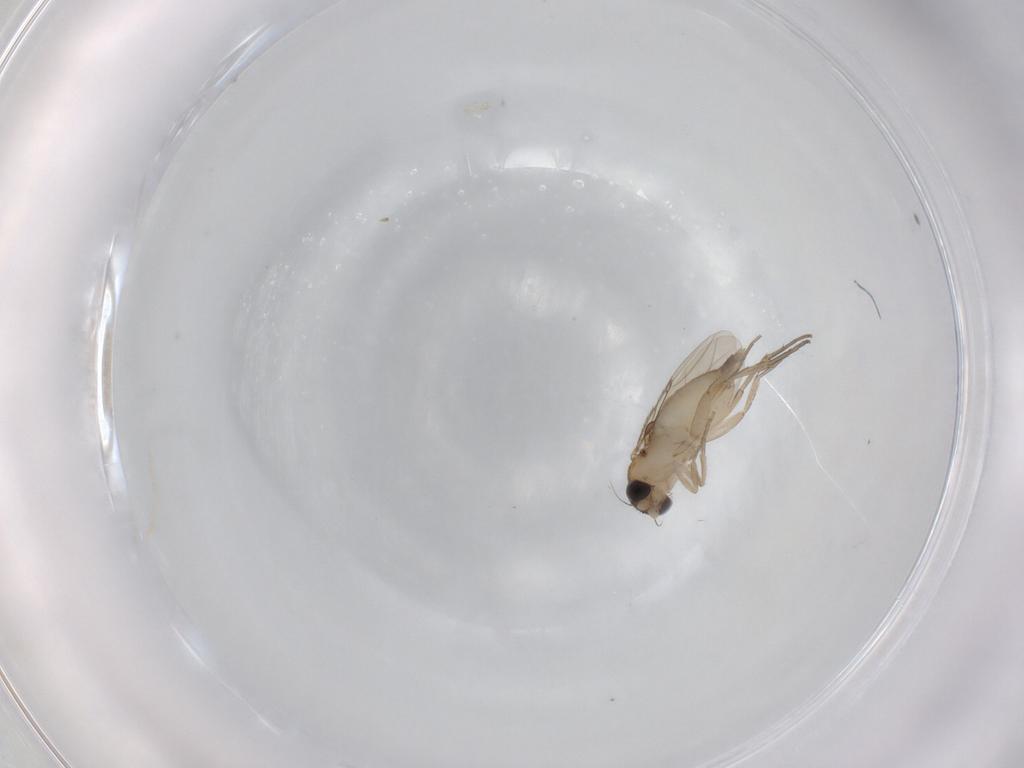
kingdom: Animalia
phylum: Arthropoda
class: Insecta
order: Diptera
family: Phoridae
